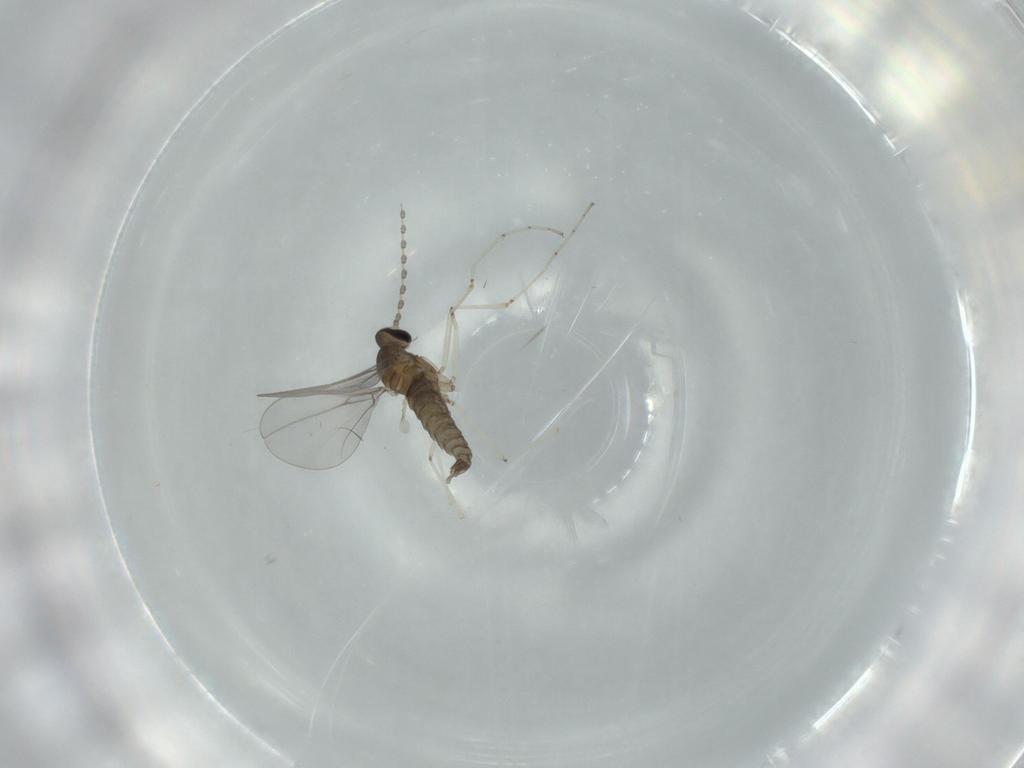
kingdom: Animalia
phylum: Arthropoda
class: Insecta
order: Diptera
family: Cecidomyiidae
